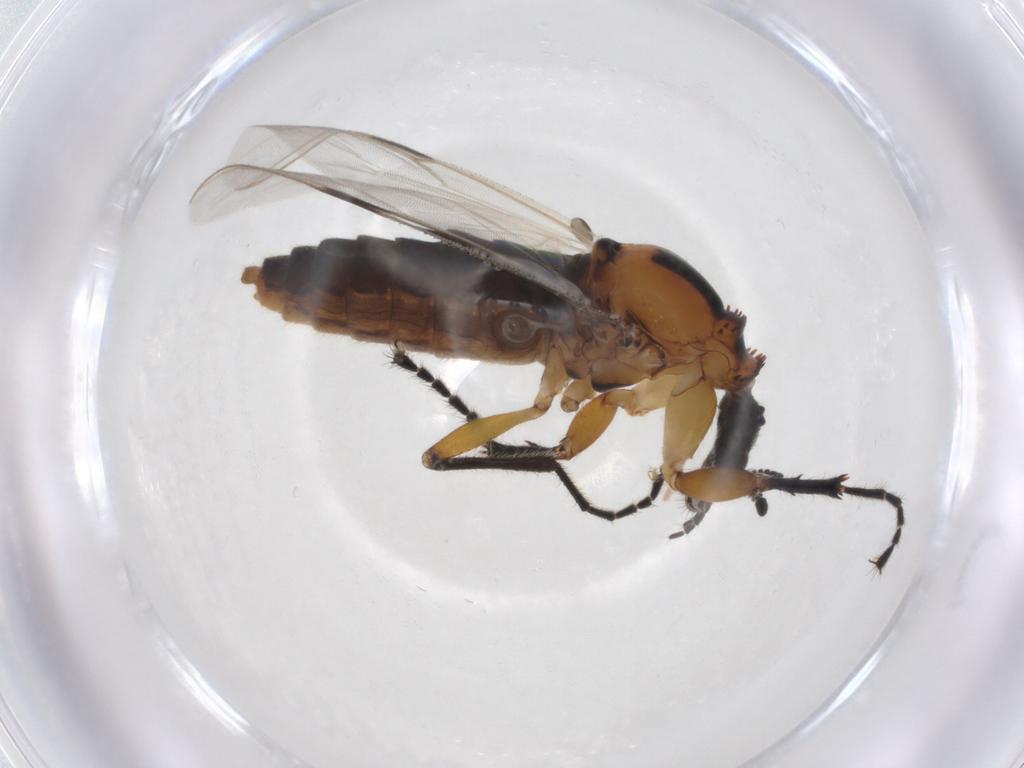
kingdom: Animalia
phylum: Arthropoda
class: Insecta
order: Diptera
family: Bibionidae
